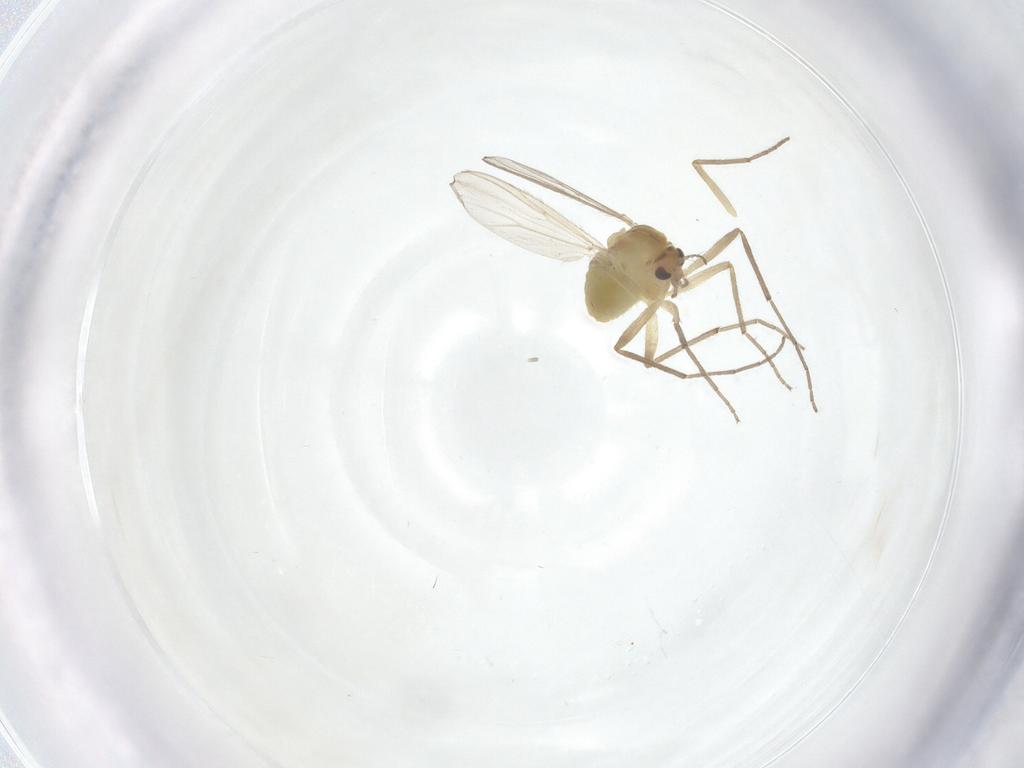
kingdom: Animalia
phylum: Arthropoda
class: Insecta
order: Diptera
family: Chironomidae
